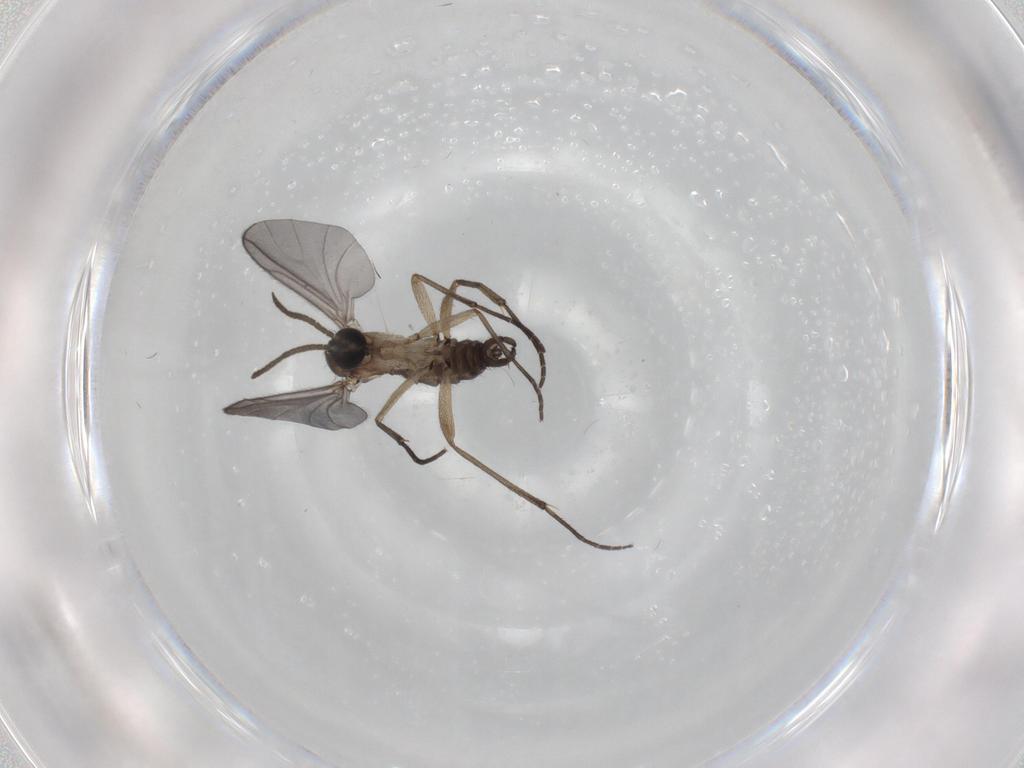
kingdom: Animalia
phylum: Arthropoda
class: Insecta
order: Diptera
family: Sciaridae
